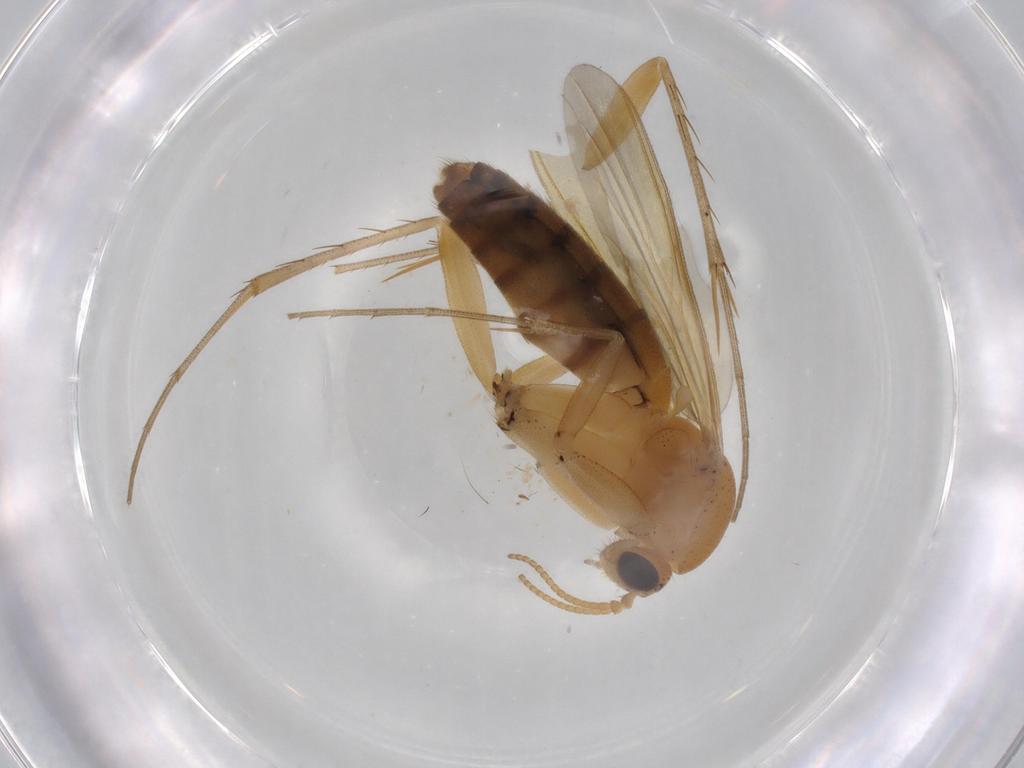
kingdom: Animalia
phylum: Arthropoda
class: Insecta
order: Diptera
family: Mycetophilidae
